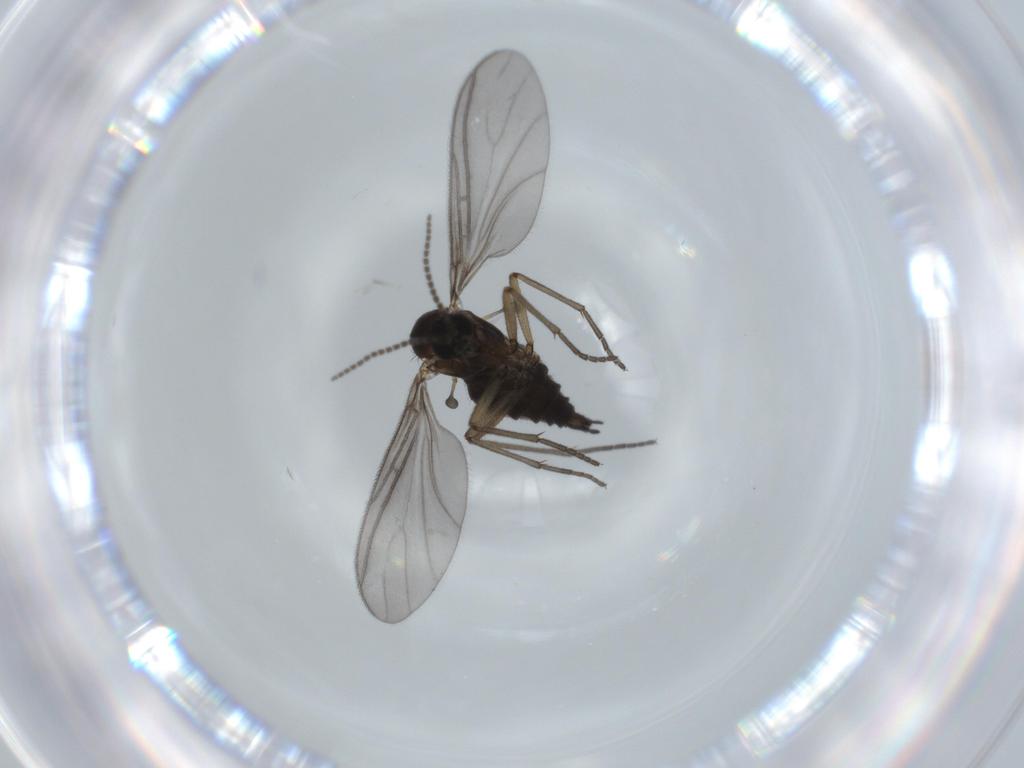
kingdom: Animalia
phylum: Arthropoda
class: Insecta
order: Diptera
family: Sciaridae
